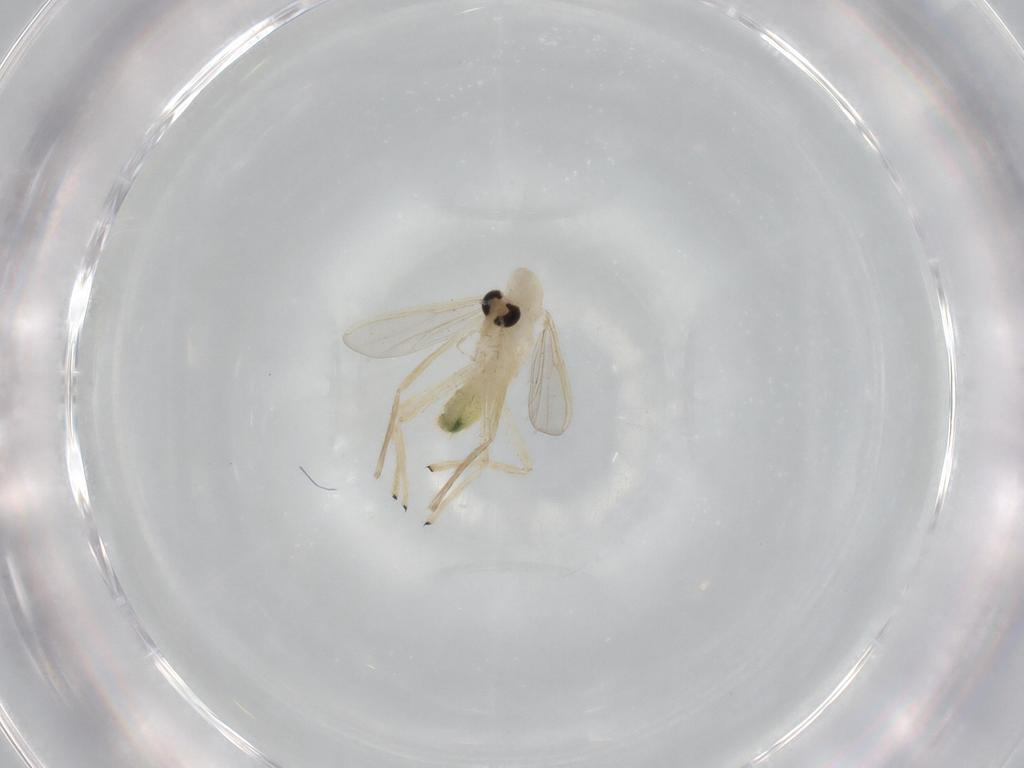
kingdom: Animalia
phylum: Arthropoda
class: Insecta
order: Diptera
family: Chironomidae
